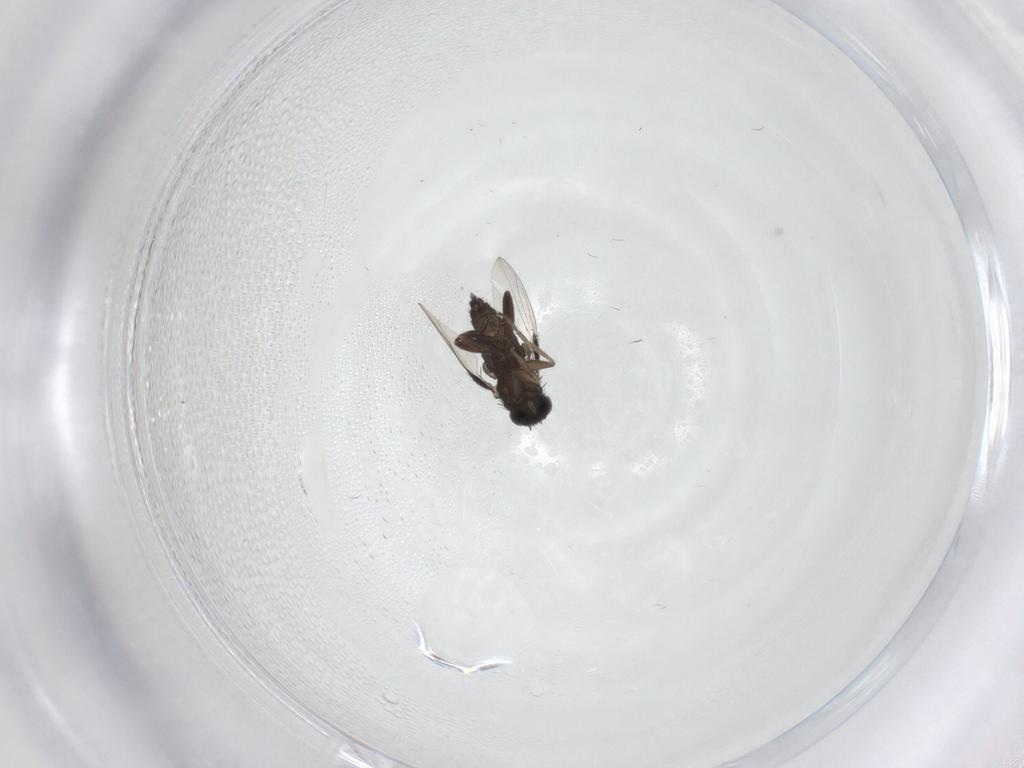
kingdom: Animalia
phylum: Arthropoda
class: Insecta
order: Diptera
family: Phoridae
